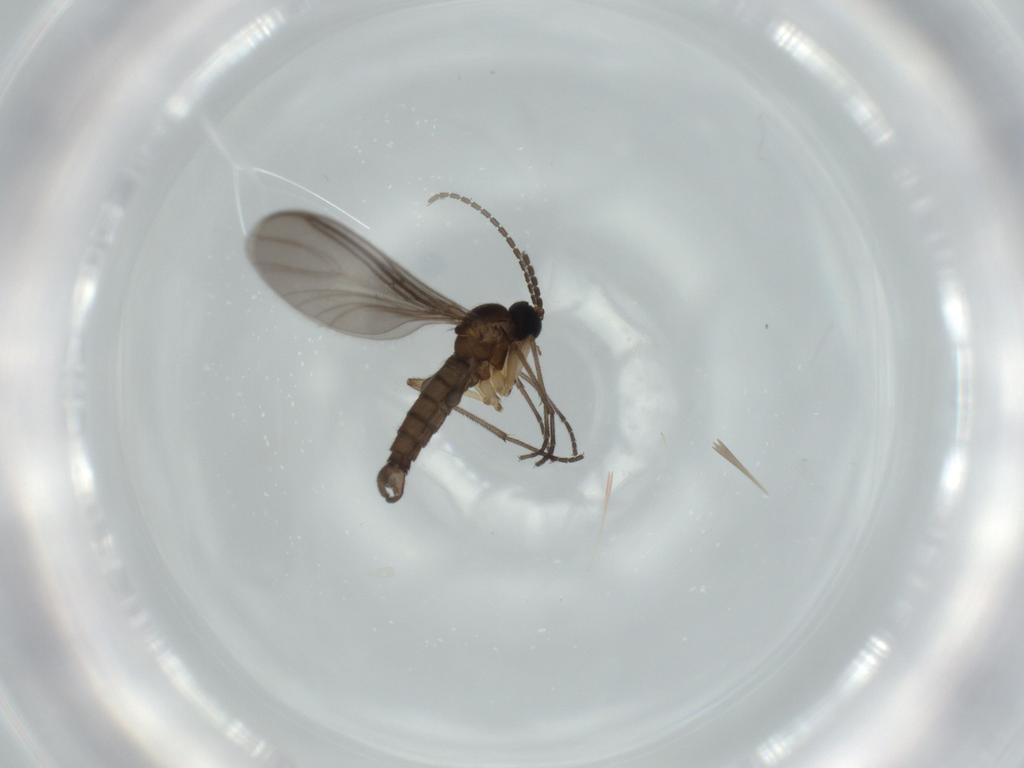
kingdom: Animalia
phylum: Arthropoda
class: Insecta
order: Diptera
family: Sciaridae
